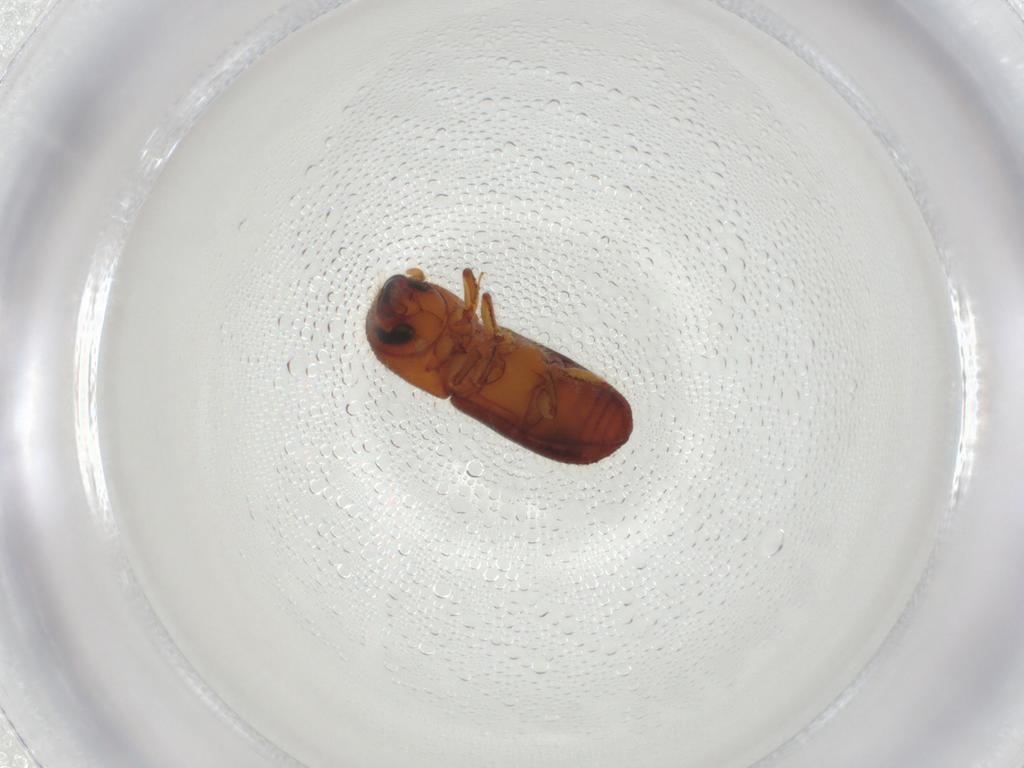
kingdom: Animalia
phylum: Arthropoda
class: Insecta
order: Coleoptera
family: Curculionidae
